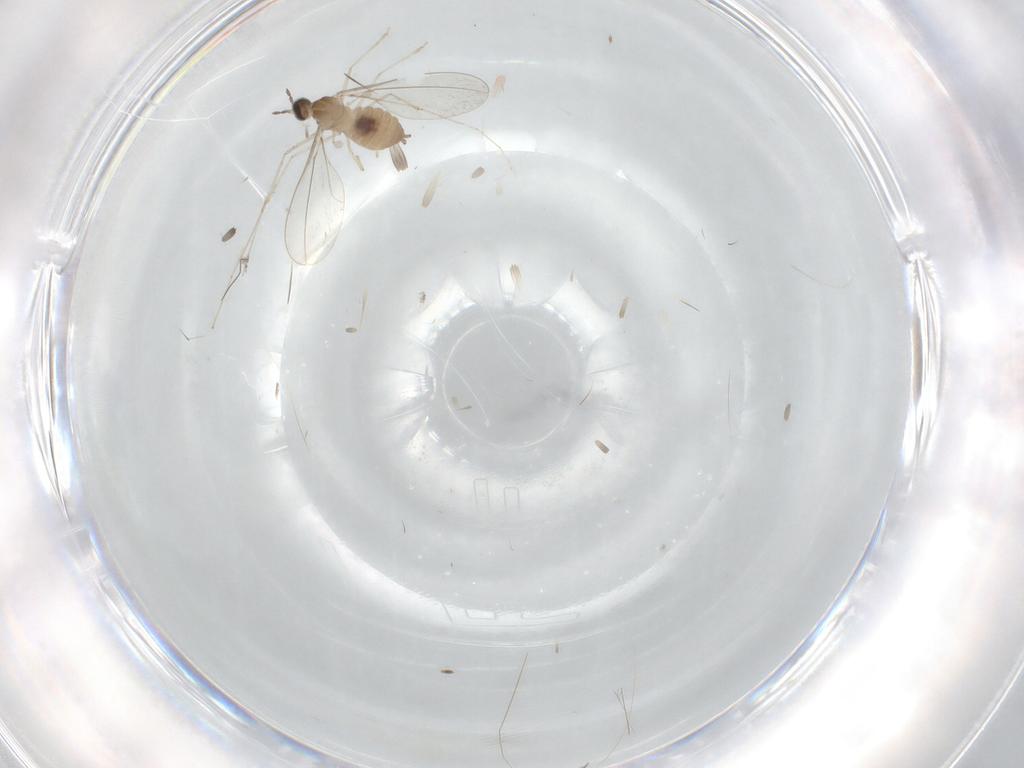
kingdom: Animalia
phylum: Arthropoda
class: Insecta
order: Diptera
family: Cecidomyiidae
